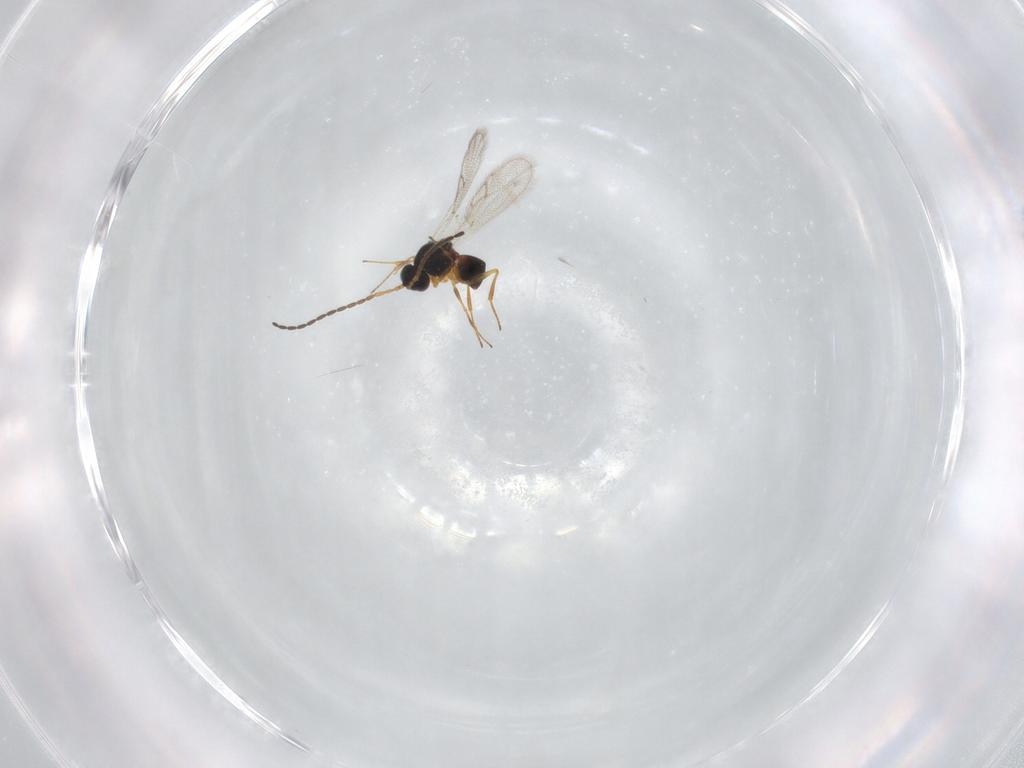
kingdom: Animalia
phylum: Arthropoda
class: Insecta
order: Hymenoptera
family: Figitidae
